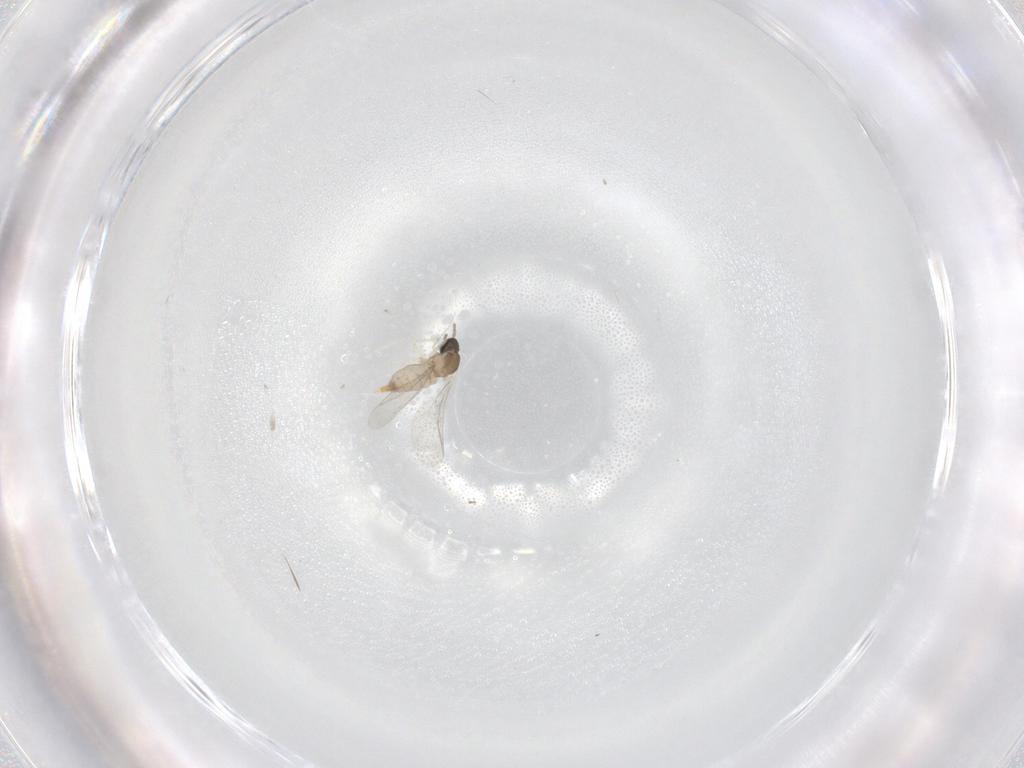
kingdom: Animalia
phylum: Arthropoda
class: Insecta
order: Diptera
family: Cecidomyiidae
